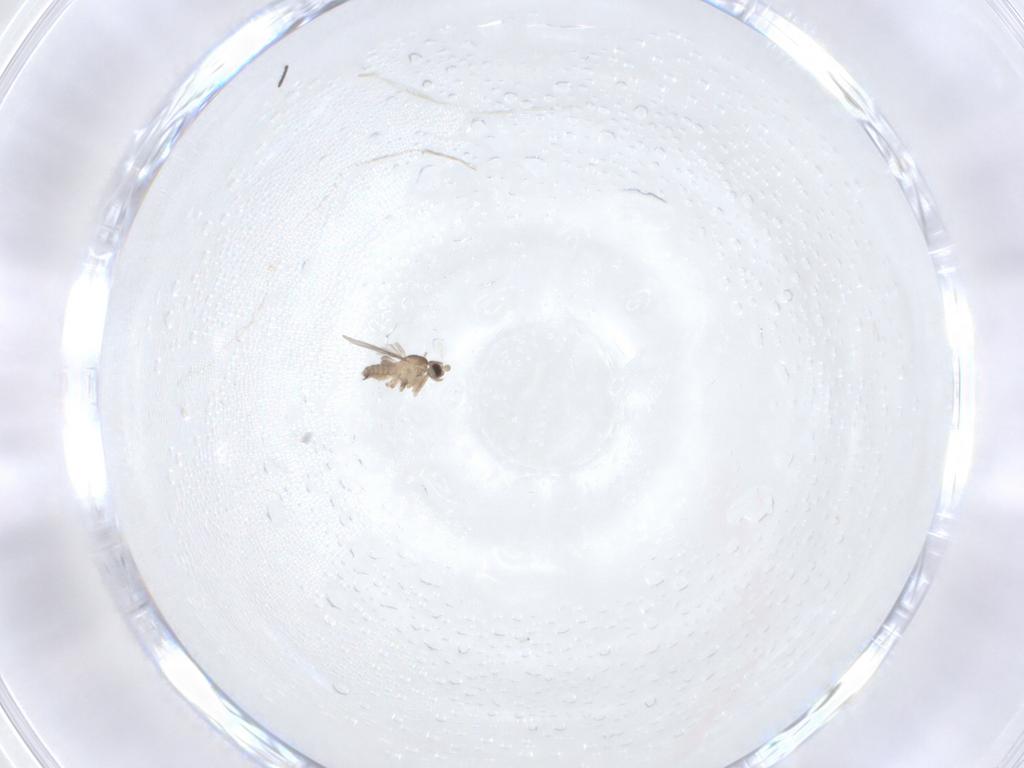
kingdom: Animalia
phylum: Arthropoda
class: Insecta
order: Diptera
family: Sciaridae
